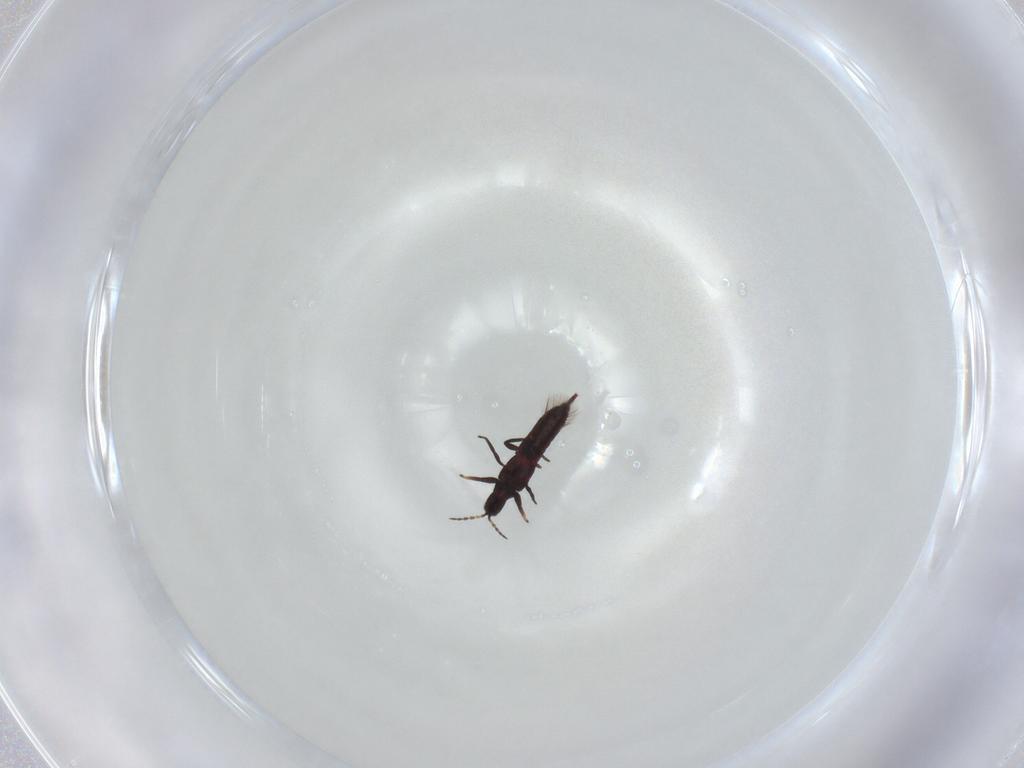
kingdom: Animalia
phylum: Arthropoda
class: Insecta
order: Thysanoptera
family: Phlaeothripidae
